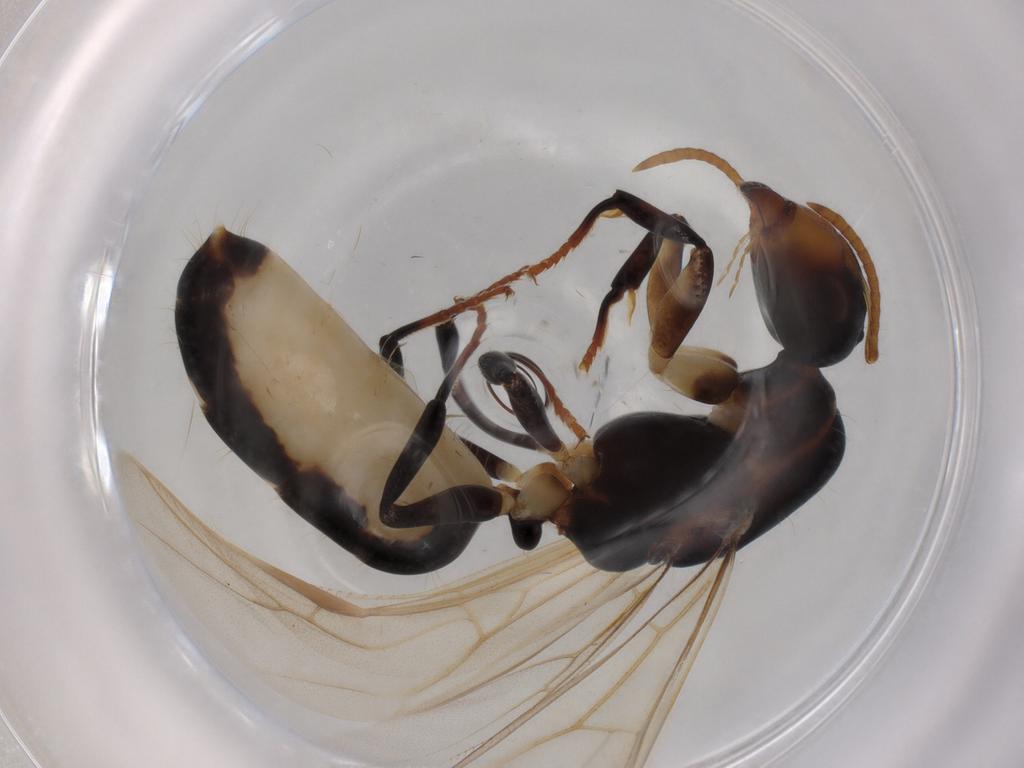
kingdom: Animalia
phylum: Arthropoda
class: Insecta
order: Hymenoptera
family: Formicidae
